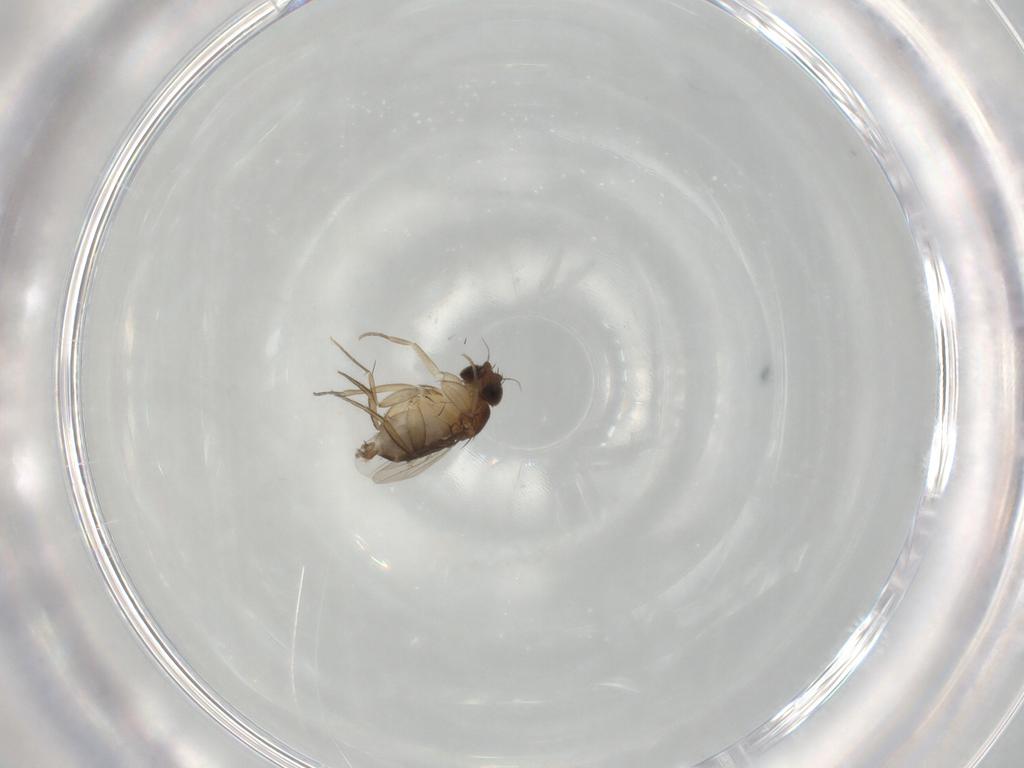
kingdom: Animalia
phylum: Arthropoda
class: Insecta
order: Diptera
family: Phoridae
